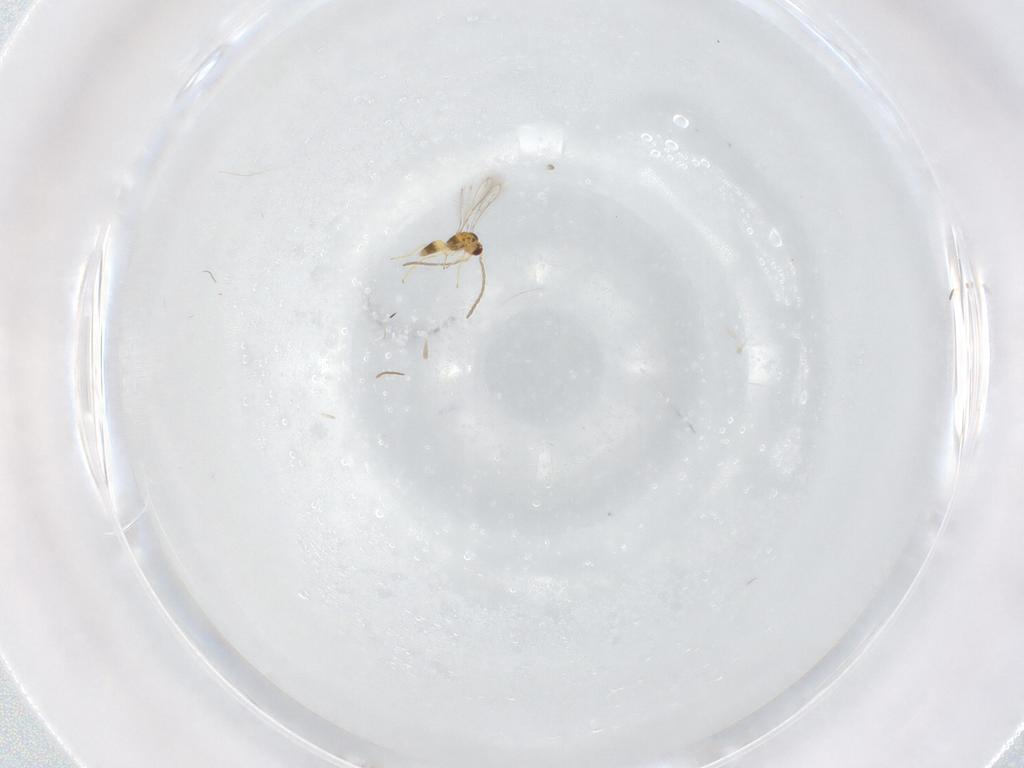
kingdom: Animalia
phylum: Arthropoda
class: Insecta
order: Hymenoptera
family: Mymaridae
